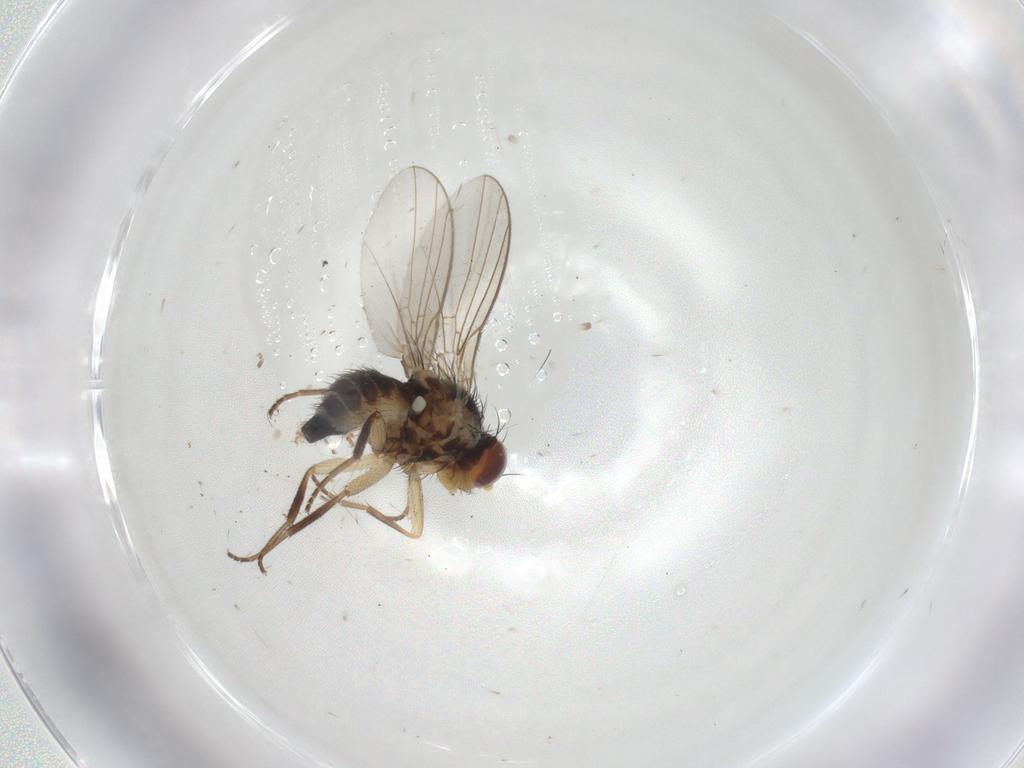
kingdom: Animalia
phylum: Arthropoda
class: Insecta
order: Diptera
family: Agromyzidae
